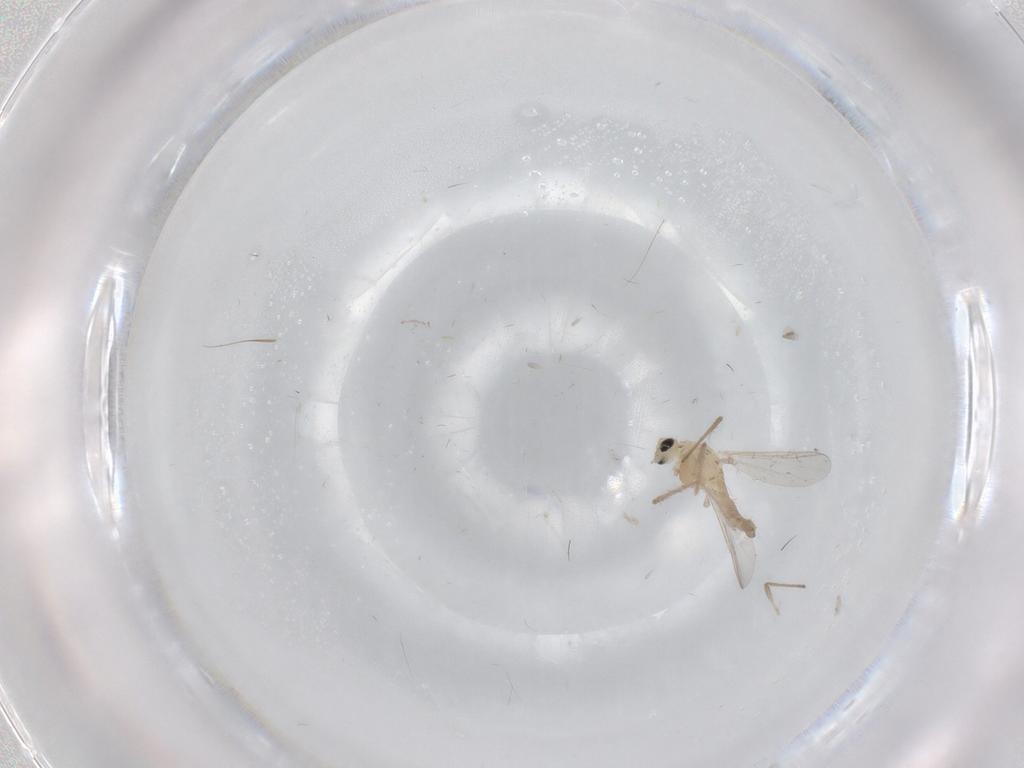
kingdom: Animalia
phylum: Arthropoda
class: Insecta
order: Diptera
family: Chironomidae
